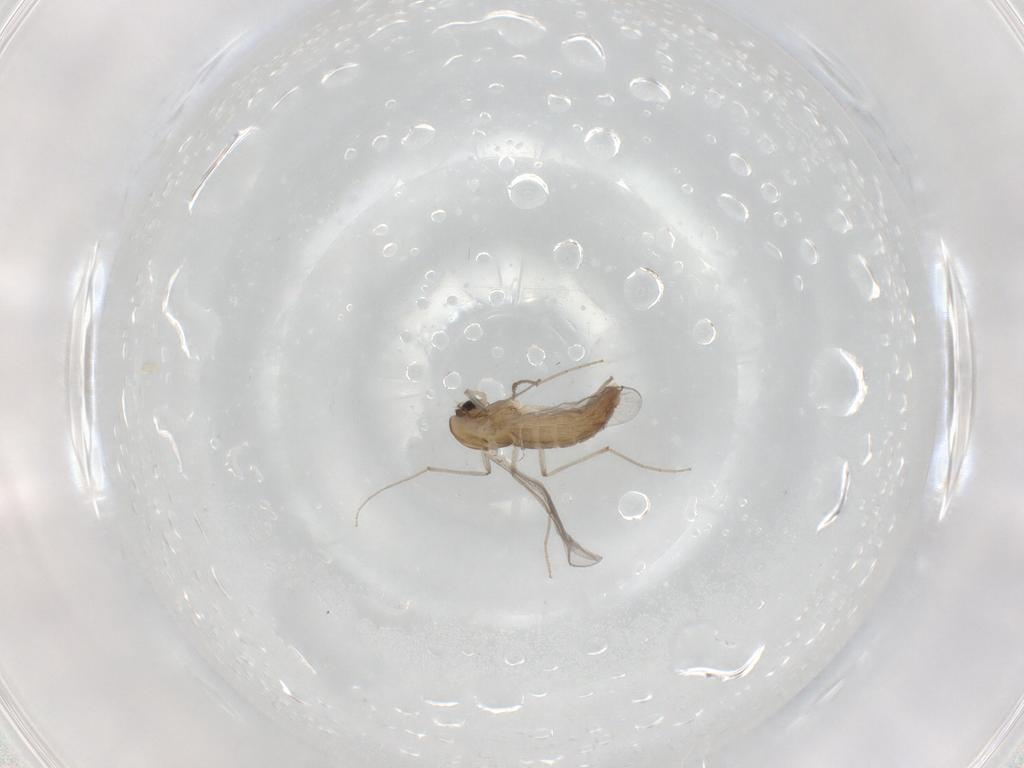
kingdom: Animalia
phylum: Arthropoda
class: Insecta
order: Diptera
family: Chironomidae
